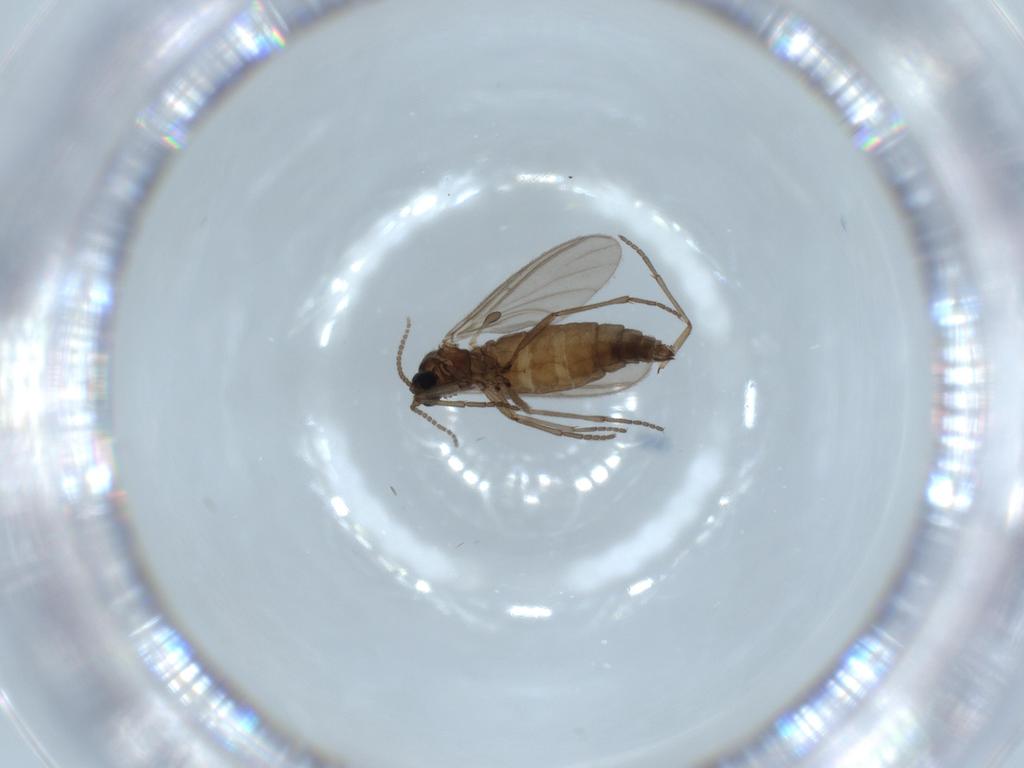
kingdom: Animalia
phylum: Arthropoda
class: Insecta
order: Diptera
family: Sciaridae
